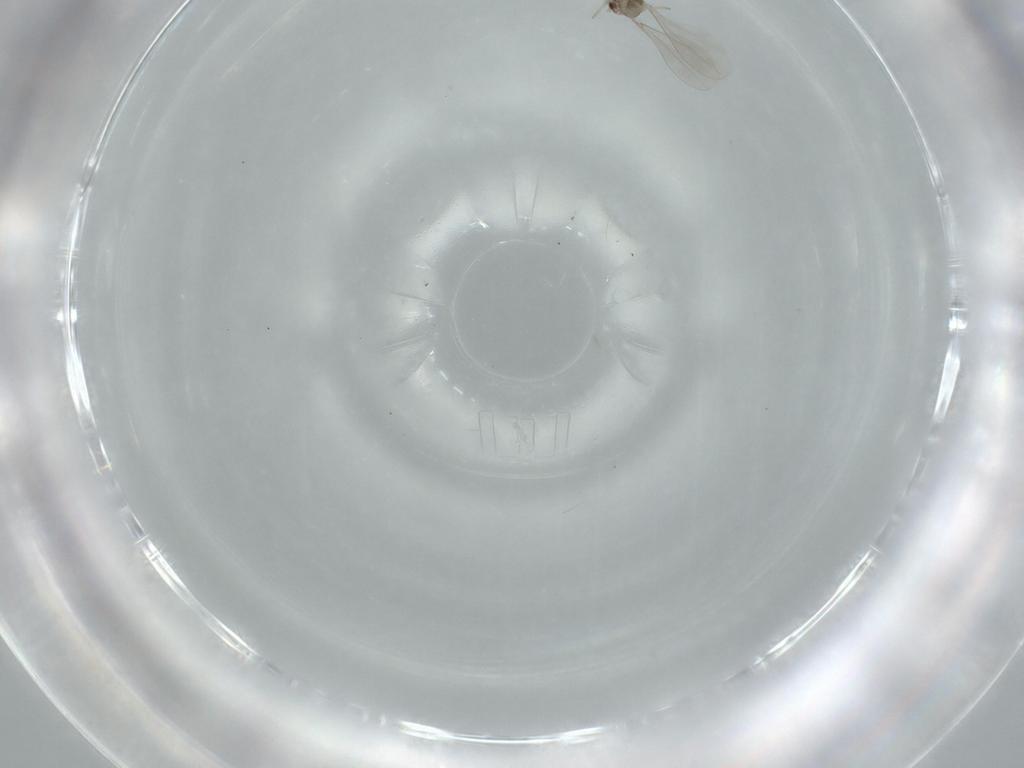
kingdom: Animalia
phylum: Arthropoda
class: Insecta
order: Diptera
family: Cecidomyiidae
